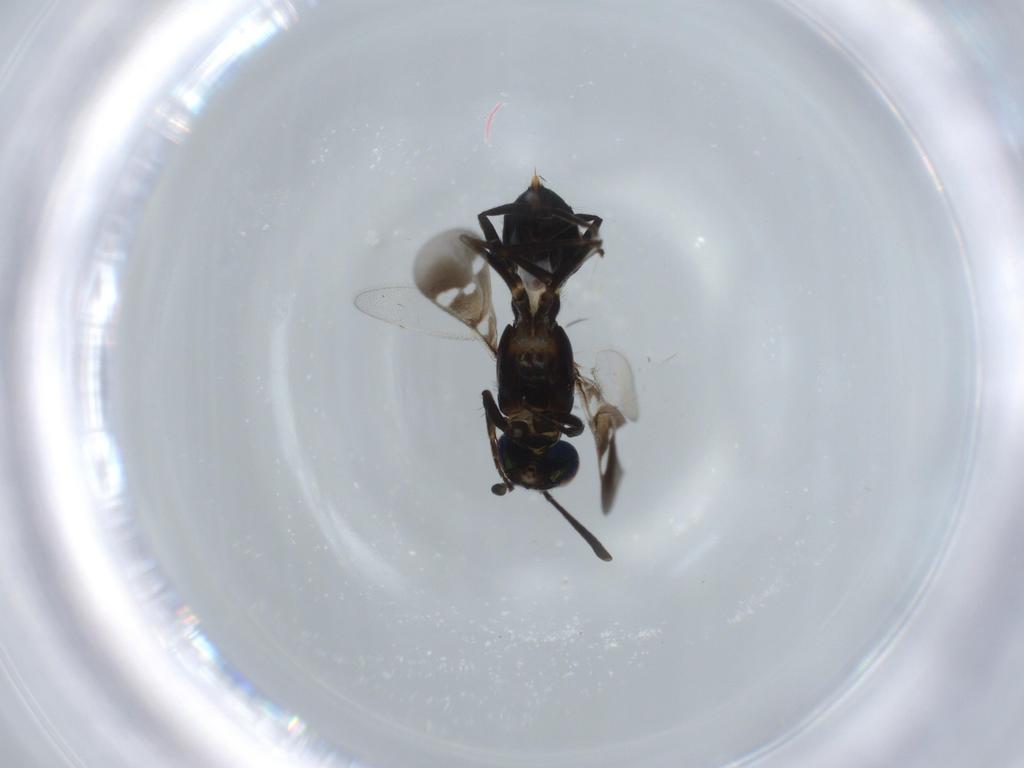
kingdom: Animalia
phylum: Arthropoda
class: Insecta
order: Hymenoptera
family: Eupelmidae
